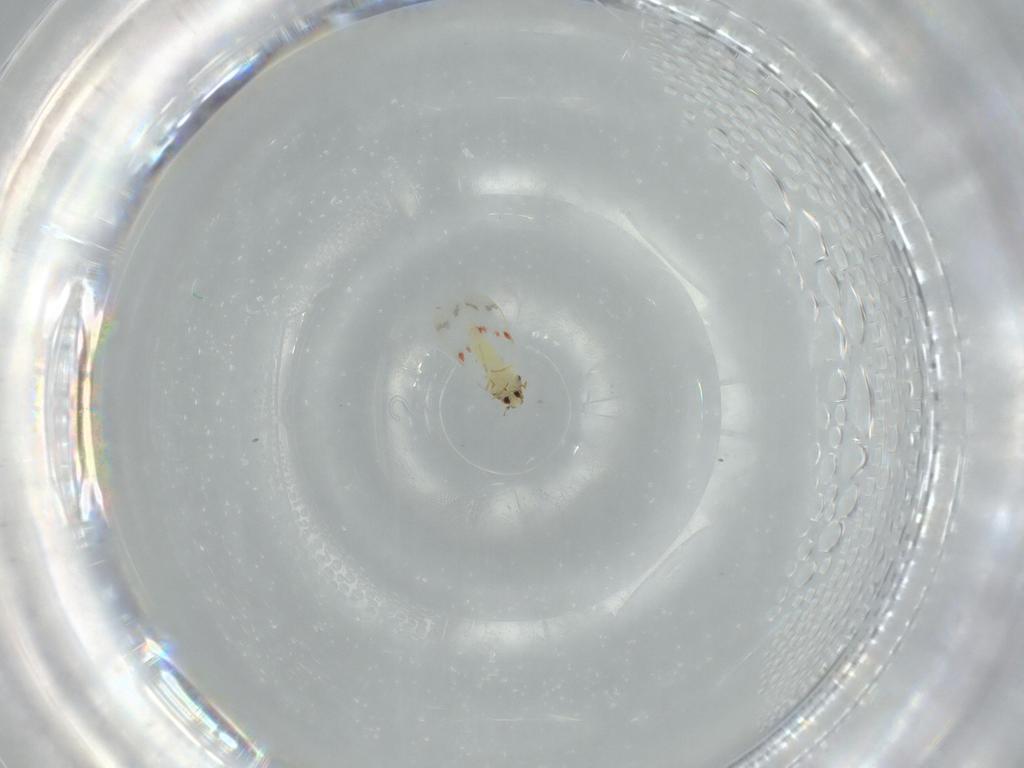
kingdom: Animalia
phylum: Arthropoda
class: Insecta
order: Hemiptera
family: Aleyrodidae
